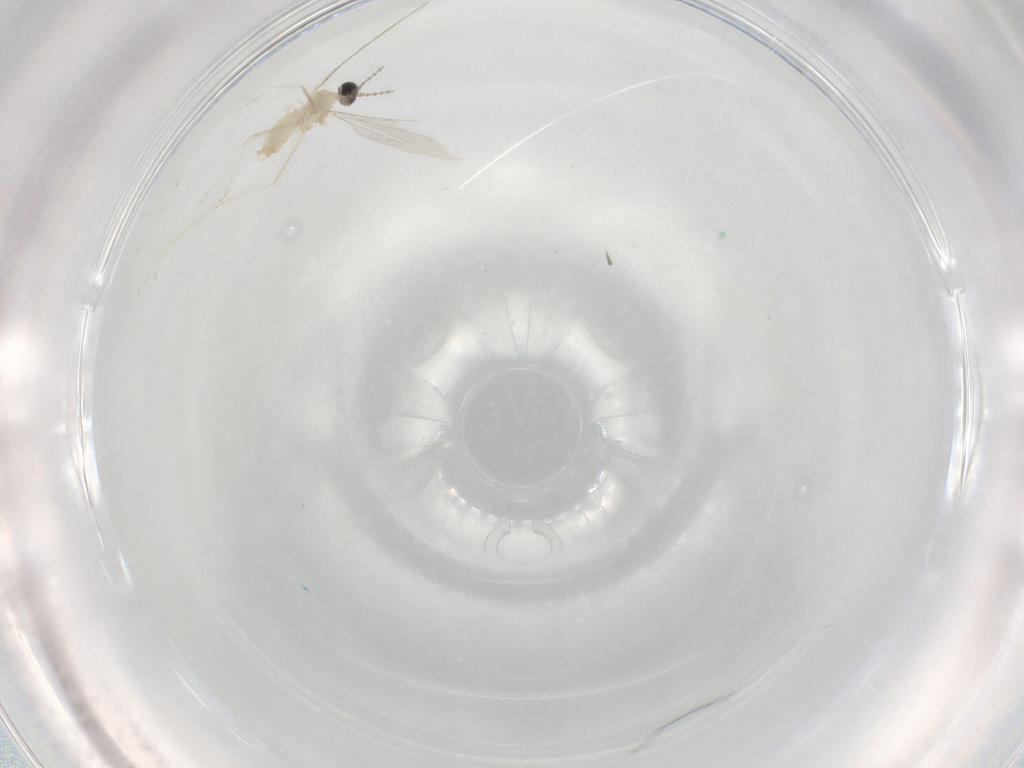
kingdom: Animalia
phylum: Arthropoda
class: Insecta
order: Diptera
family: Cecidomyiidae
